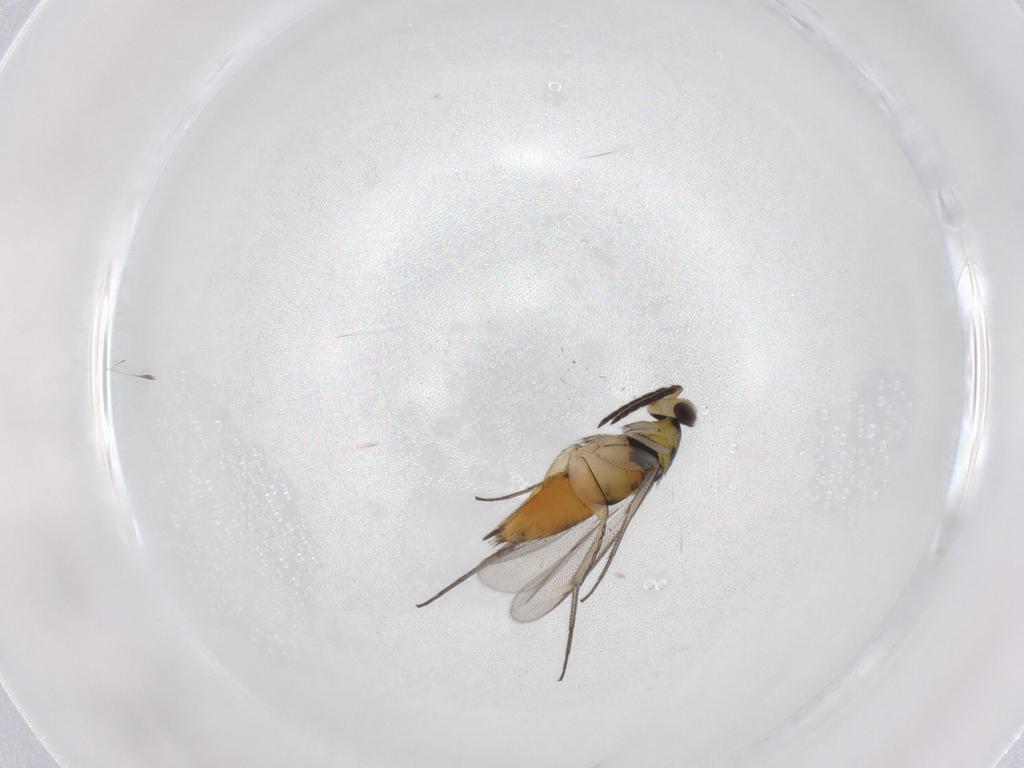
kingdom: Animalia
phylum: Arthropoda
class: Insecta
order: Hymenoptera
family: Eulophidae
